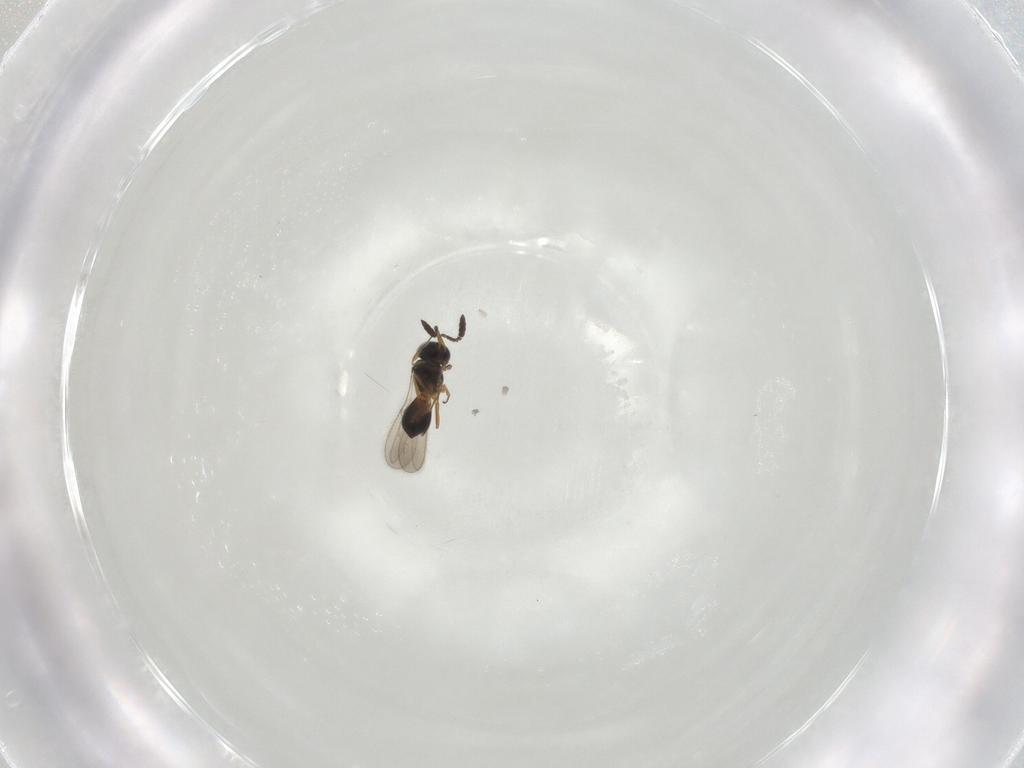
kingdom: Animalia
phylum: Arthropoda
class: Insecta
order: Hymenoptera
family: Scelionidae
